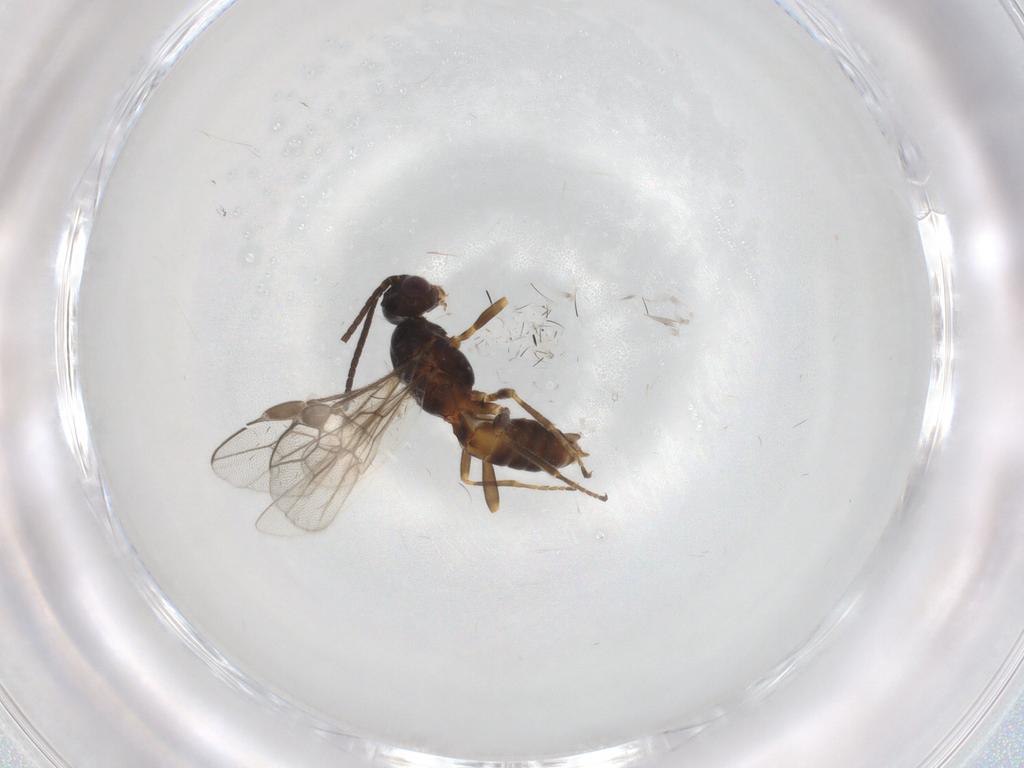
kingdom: Animalia
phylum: Arthropoda
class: Insecta
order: Hymenoptera
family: Braconidae
